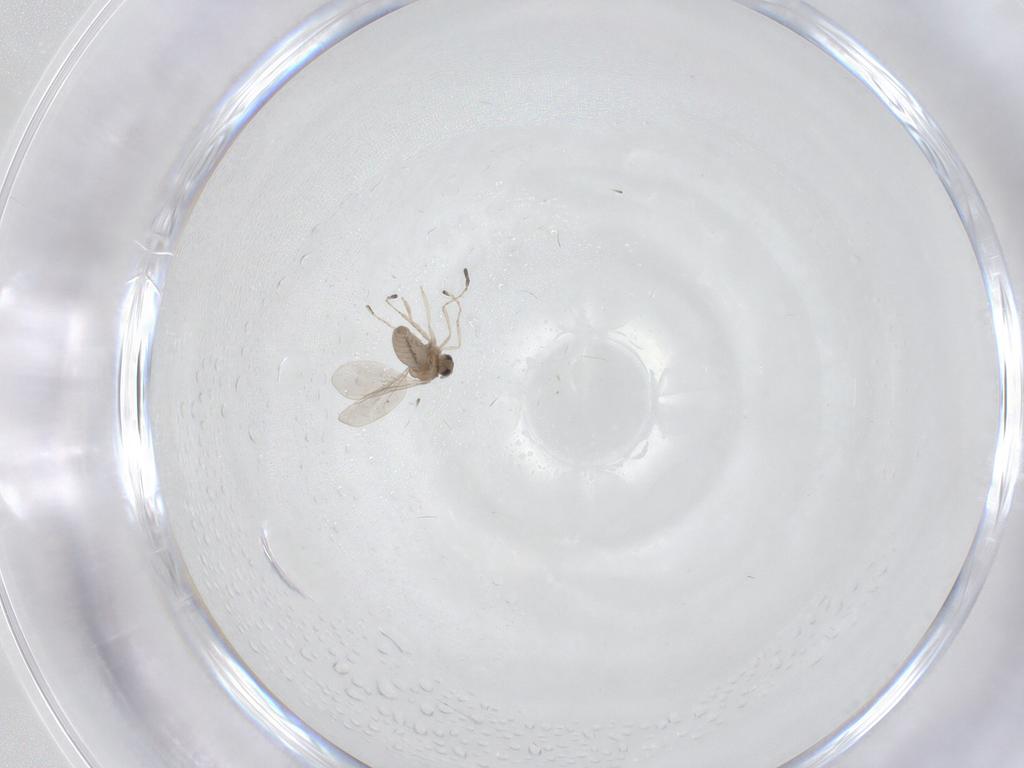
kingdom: Animalia
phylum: Arthropoda
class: Insecta
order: Diptera
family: Cecidomyiidae
